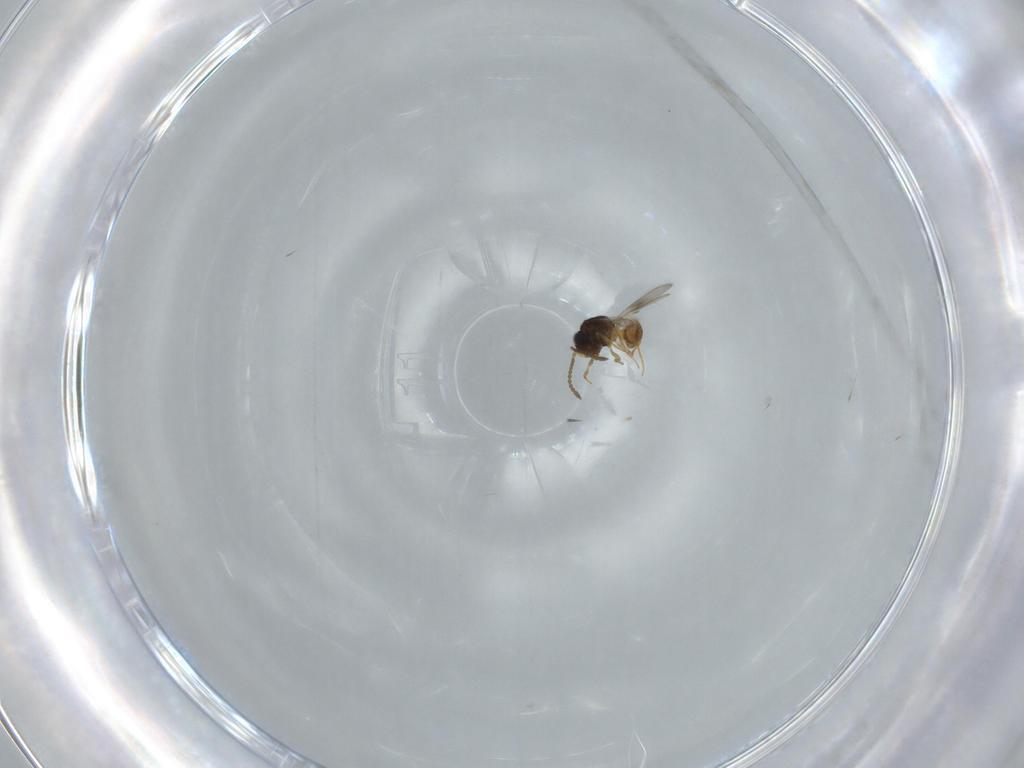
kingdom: Animalia
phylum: Arthropoda
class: Insecta
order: Hymenoptera
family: Scelionidae
